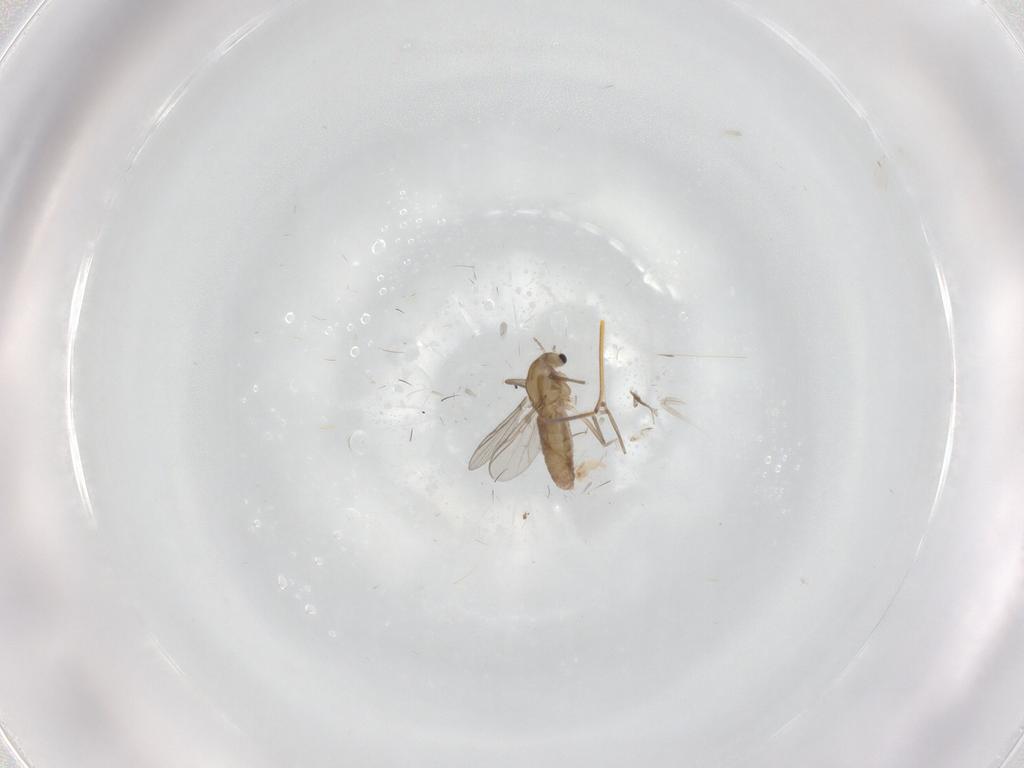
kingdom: Animalia
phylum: Arthropoda
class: Insecta
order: Diptera
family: Chironomidae
